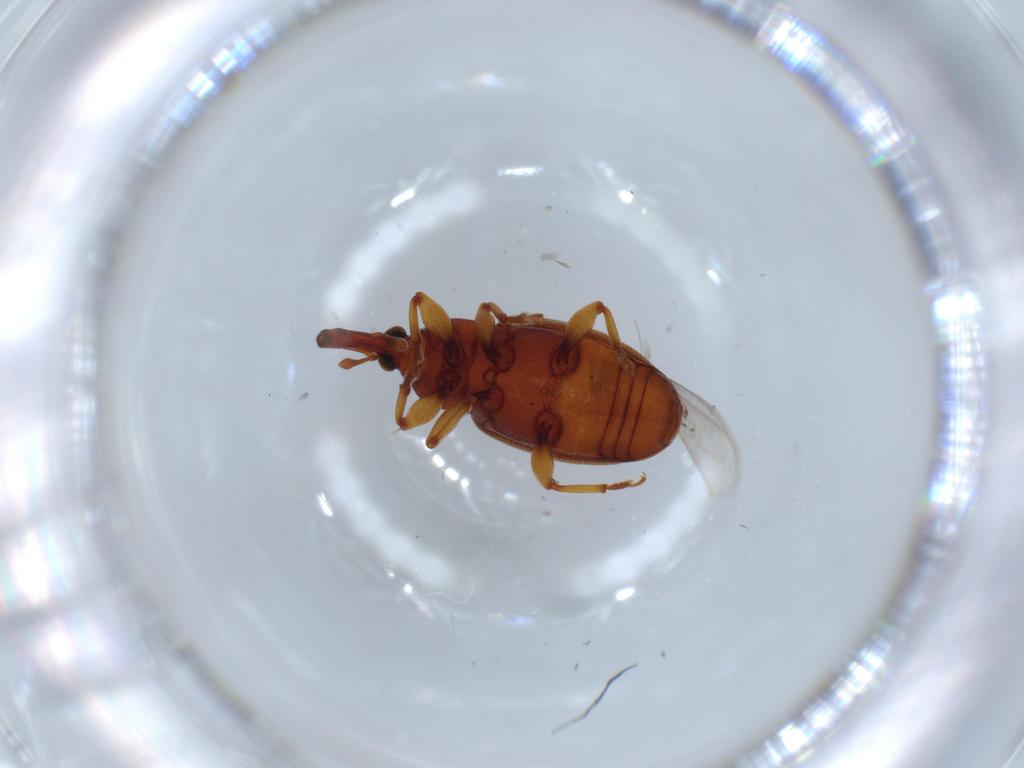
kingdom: Animalia
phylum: Arthropoda
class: Insecta
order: Coleoptera
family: Curculionidae
